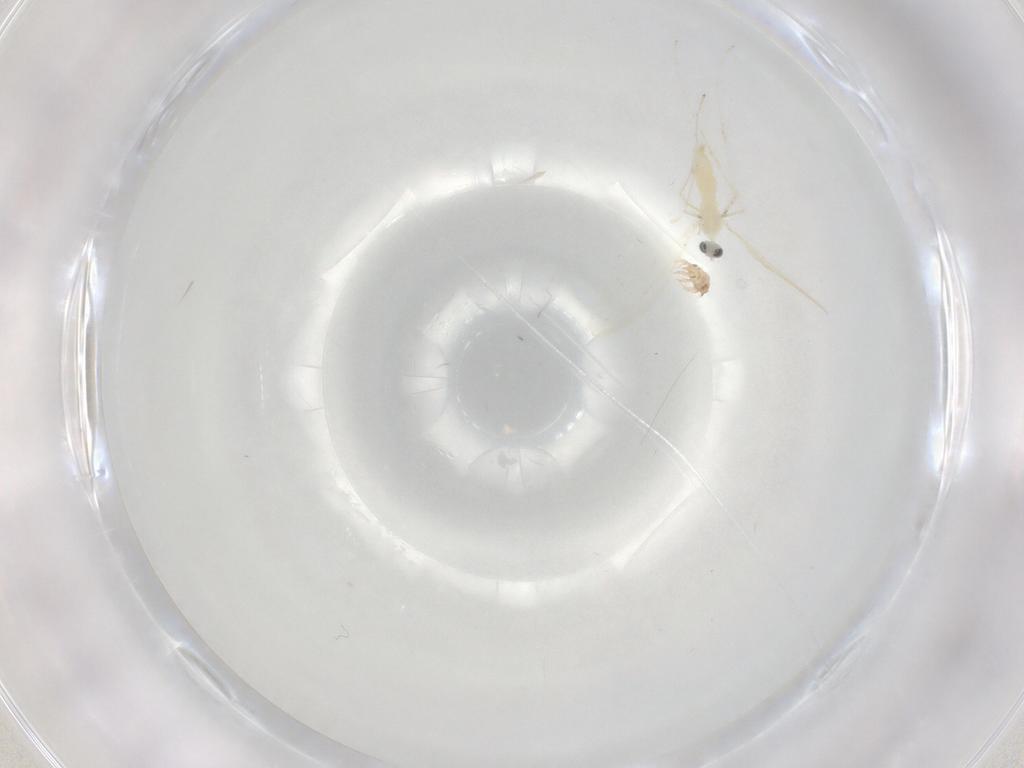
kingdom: Animalia
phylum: Arthropoda
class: Insecta
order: Diptera
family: Cecidomyiidae
